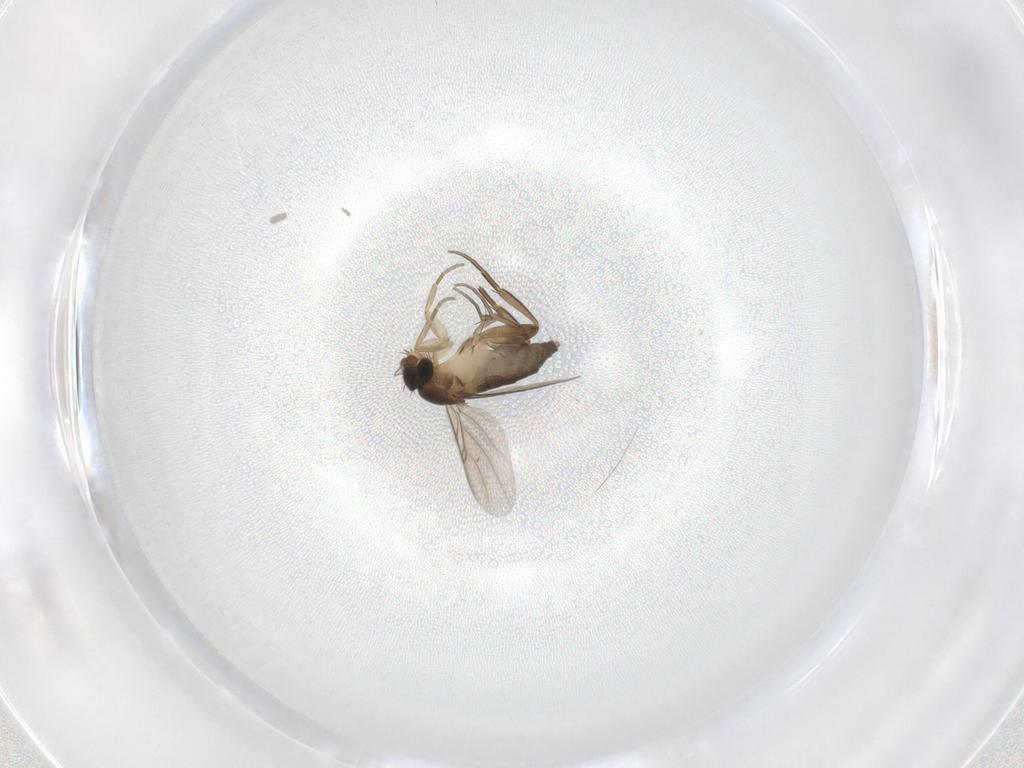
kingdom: Animalia
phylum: Arthropoda
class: Insecta
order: Diptera
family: Phoridae
